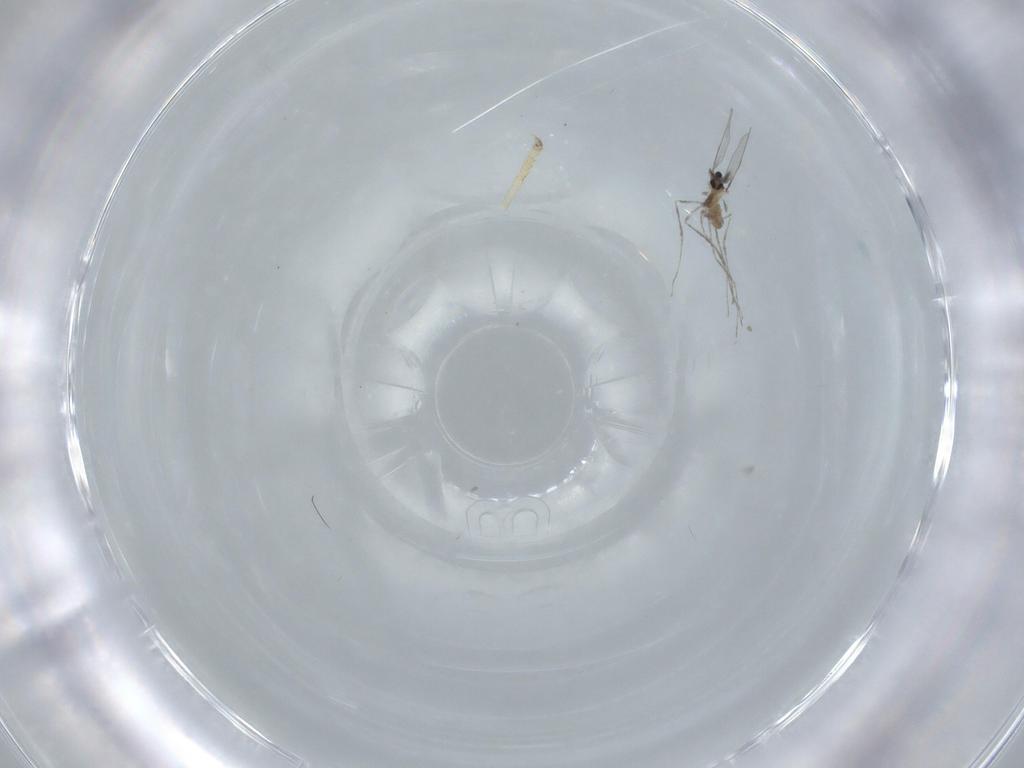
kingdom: Animalia
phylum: Arthropoda
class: Insecta
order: Diptera
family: Cecidomyiidae
